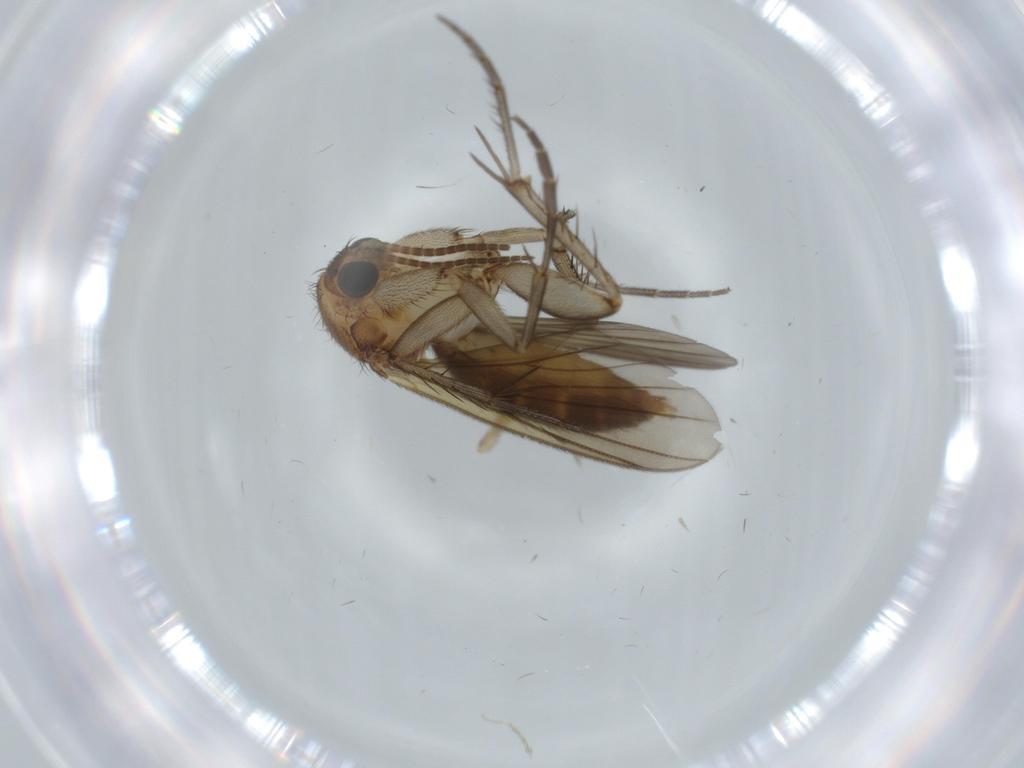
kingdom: Animalia
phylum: Arthropoda
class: Insecta
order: Diptera
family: Milichiidae
